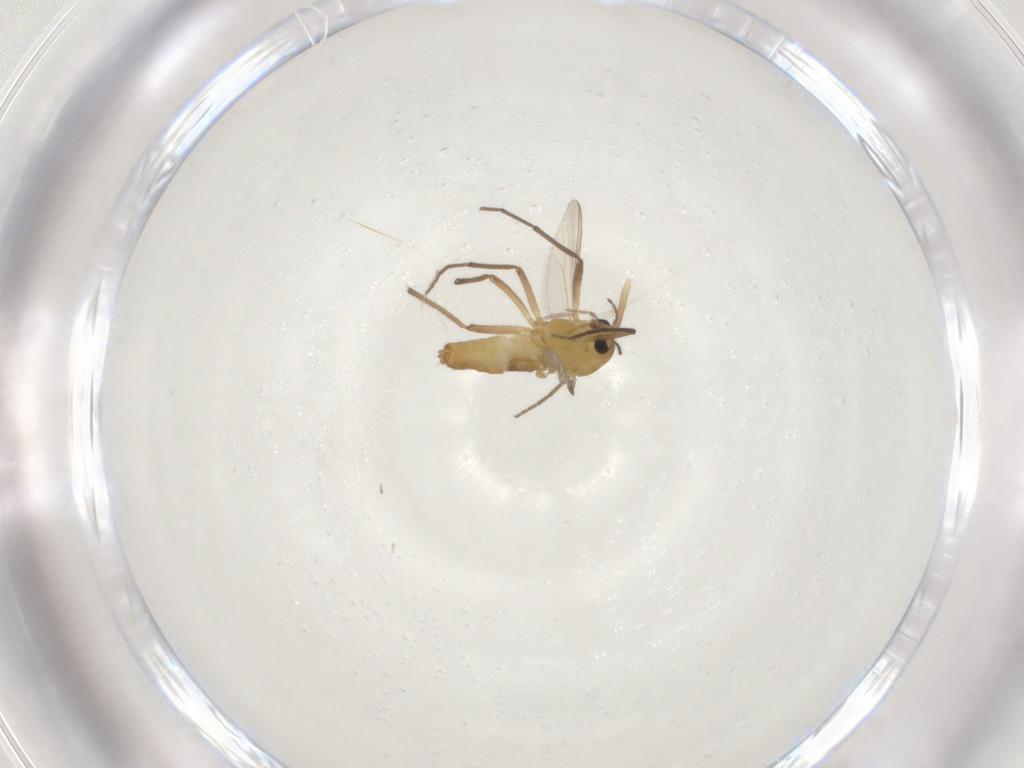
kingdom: Animalia
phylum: Arthropoda
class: Insecta
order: Diptera
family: Chironomidae
